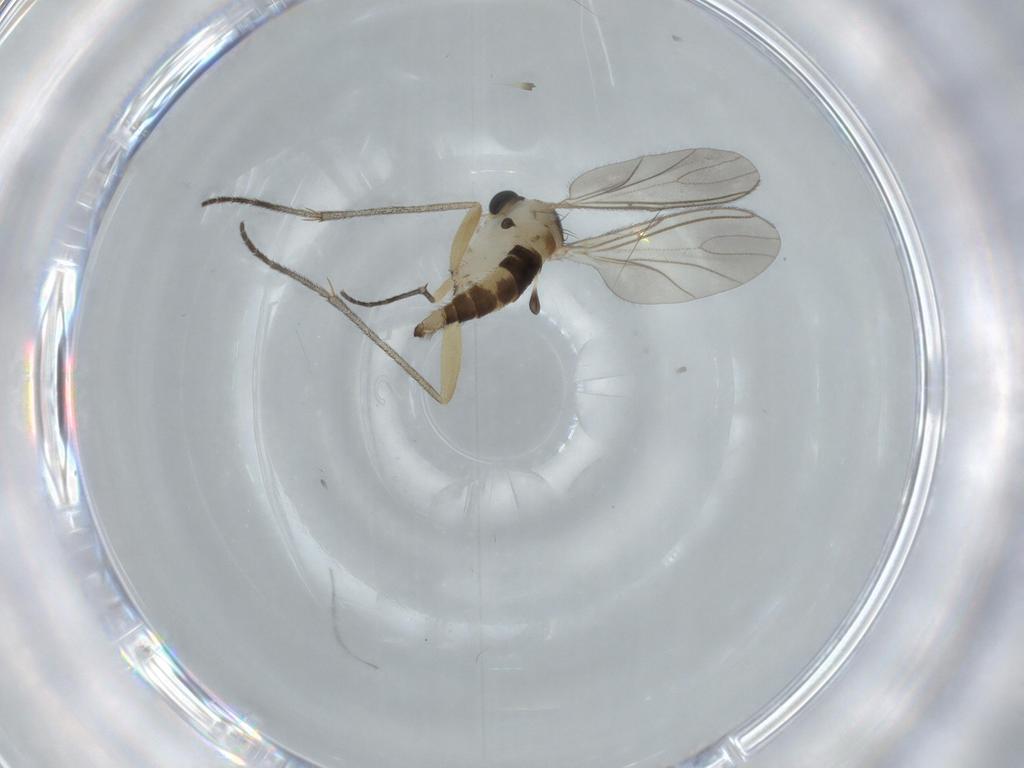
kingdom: Animalia
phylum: Arthropoda
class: Insecta
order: Diptera
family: Sciaridae
